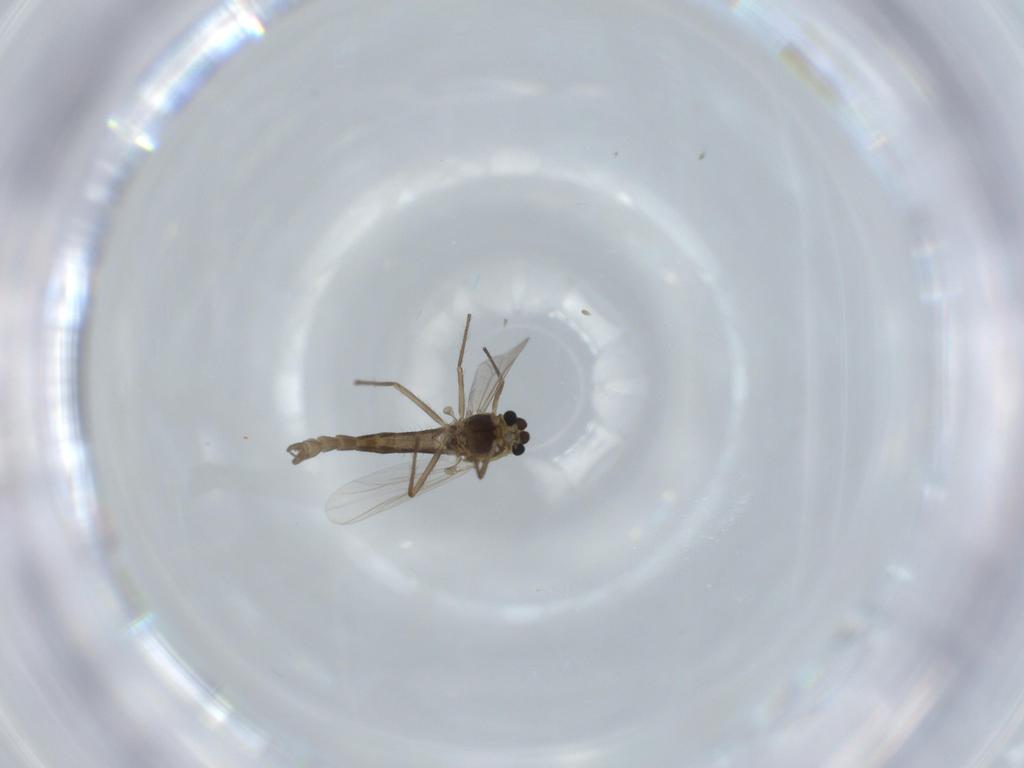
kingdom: Animalia
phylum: Arthropoda
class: Insecta
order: Diptera
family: Chironomidae
